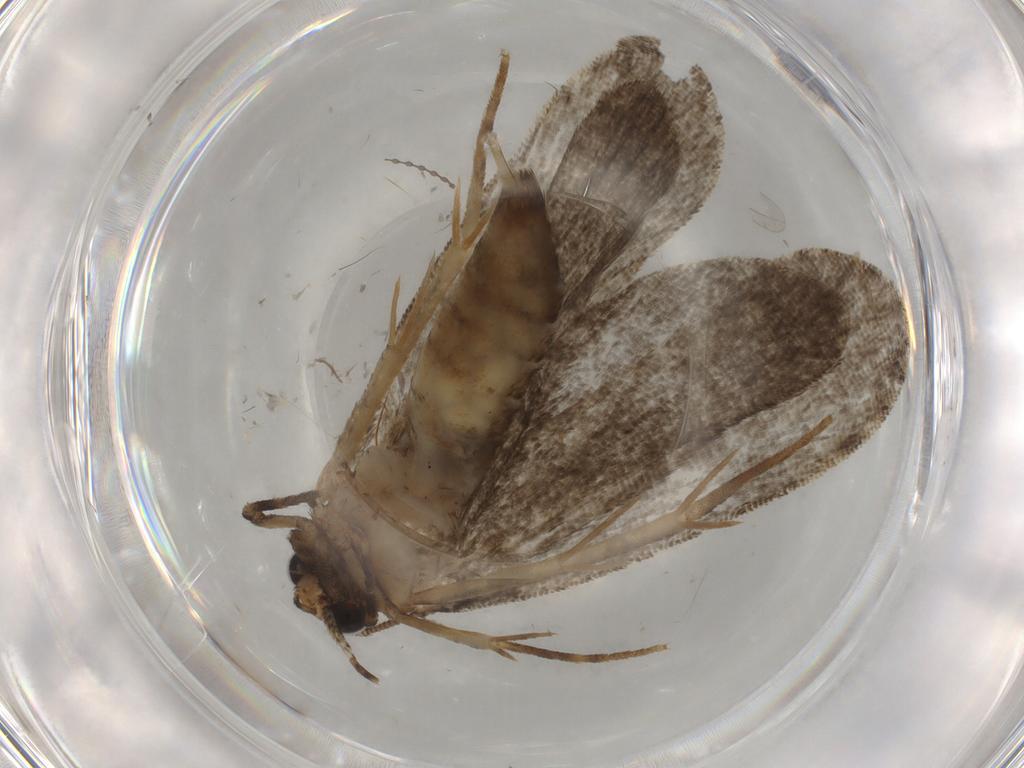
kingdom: Animalia
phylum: Arthropoda
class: Insecta
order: Lepidoptera
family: Tineidae
